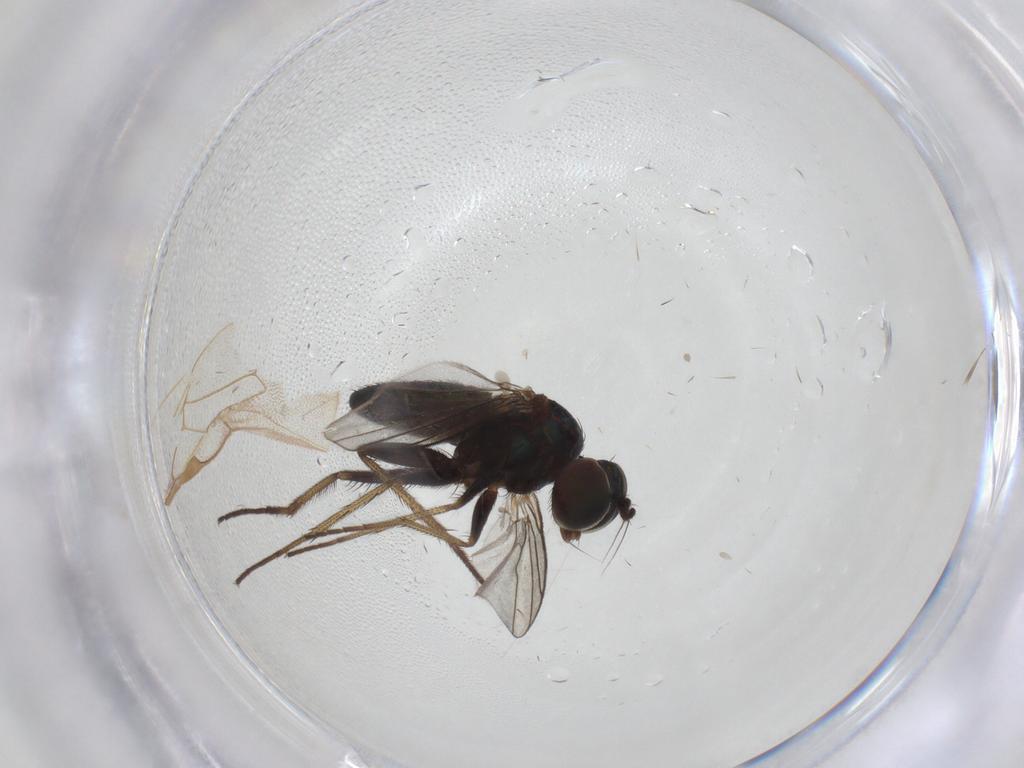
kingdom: Animalia
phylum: Arthropoda
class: Insecta
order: Diptera
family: Dolichopodidae
